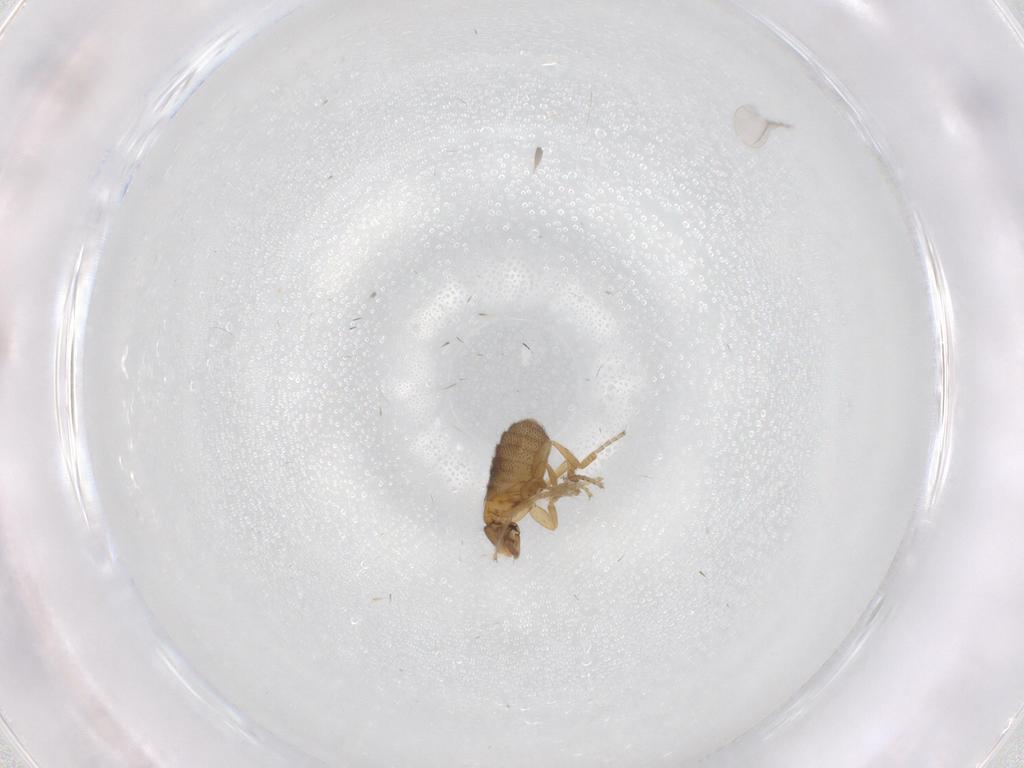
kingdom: Animalia
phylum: Arthropoda
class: Insecta
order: Diptera
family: Phoridae
